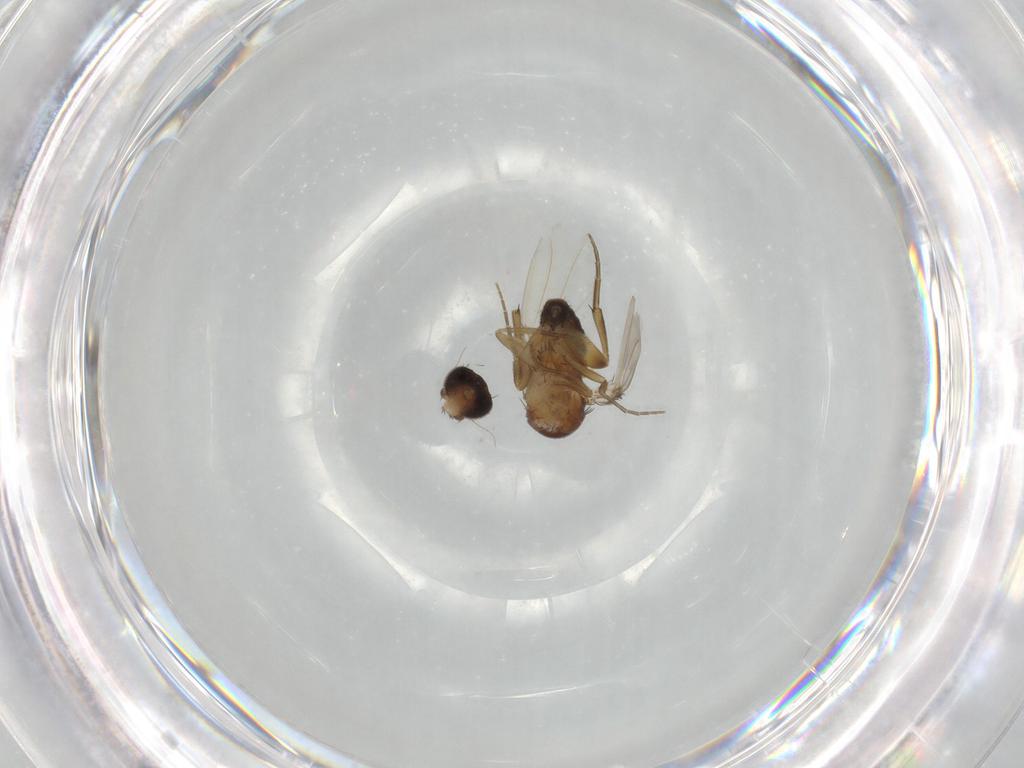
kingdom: Animalia
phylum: Arthropoda
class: Insecta
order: Diptera
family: Phoridae
